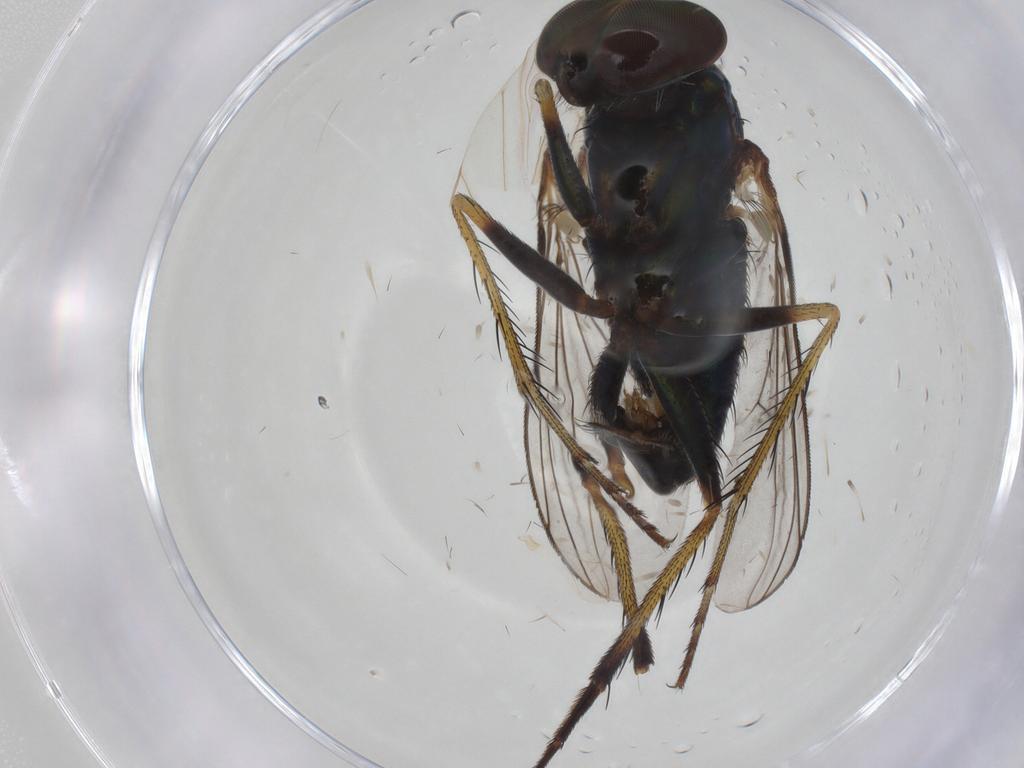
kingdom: Animalia
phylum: Arthropoda
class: Insecta
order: Diptera
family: Dolichopodidae
